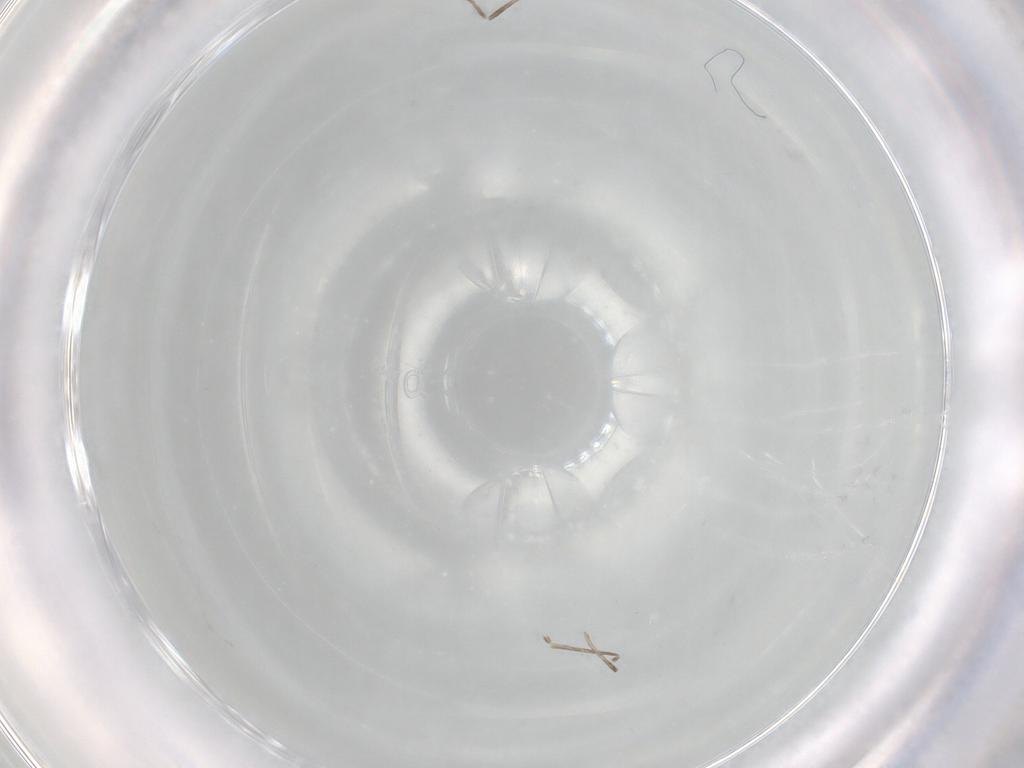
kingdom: Animalia
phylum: Arthropoda
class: Insecta
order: Diptera
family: Cecidomyiidae
